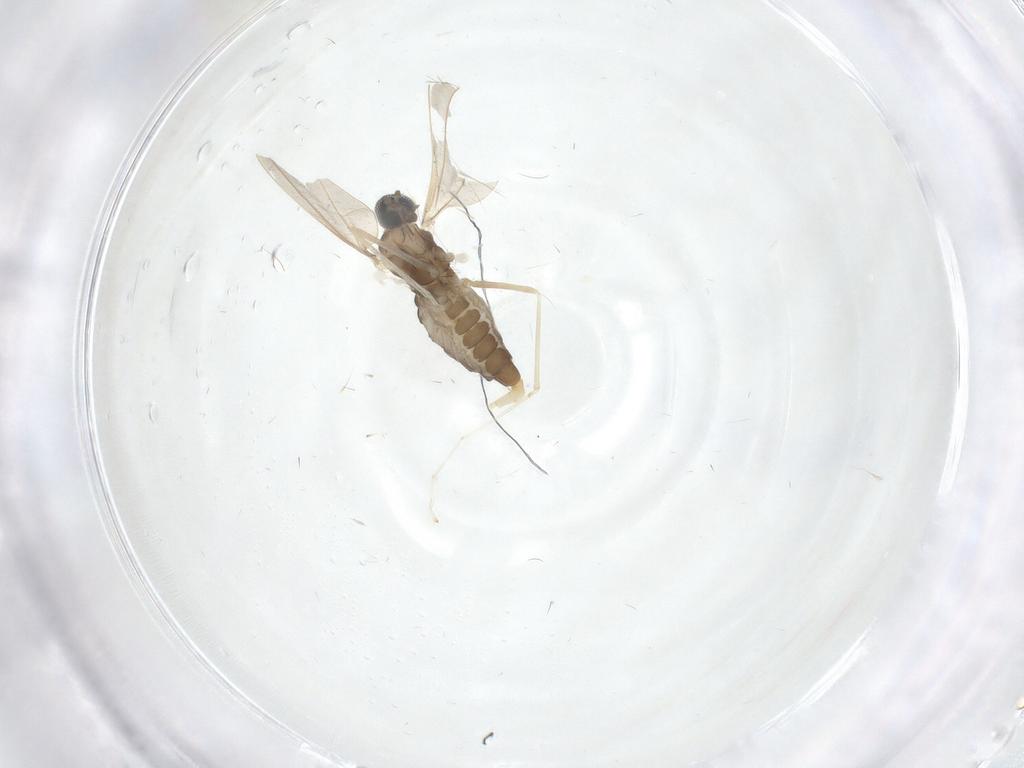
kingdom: Animalia
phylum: Arthropoda
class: Insecta
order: Diptera
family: Cecidomyiidae
